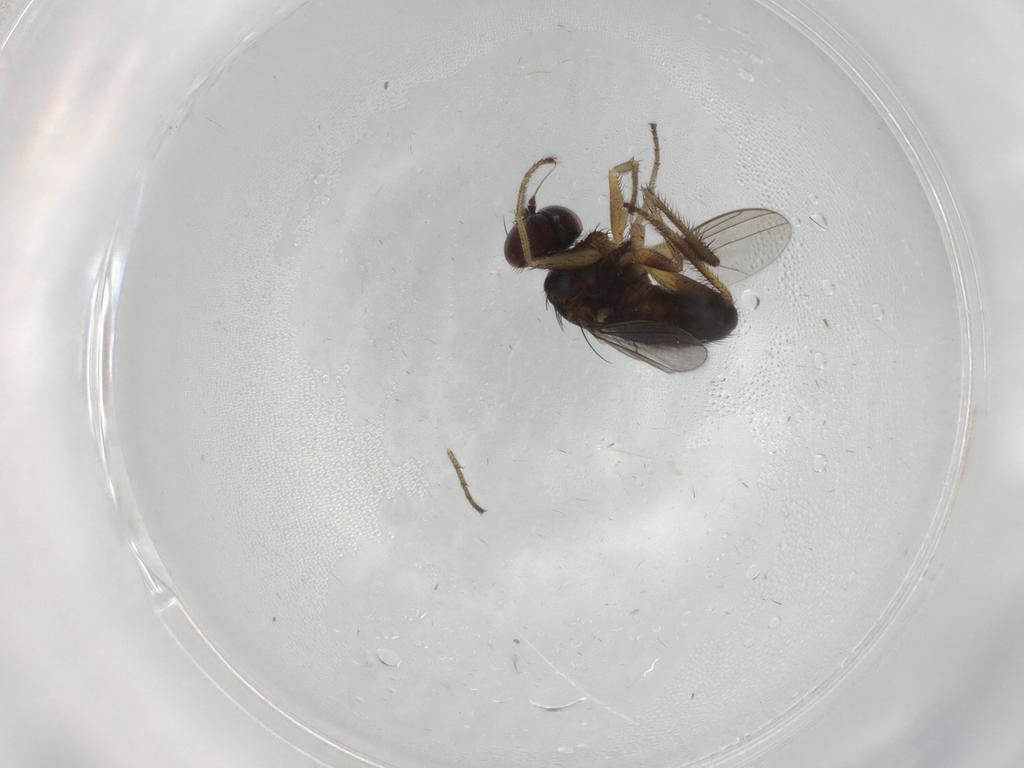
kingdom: Animalia
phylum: Arthropoda
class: Insecta
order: Diptera
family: Dolichopodidae
